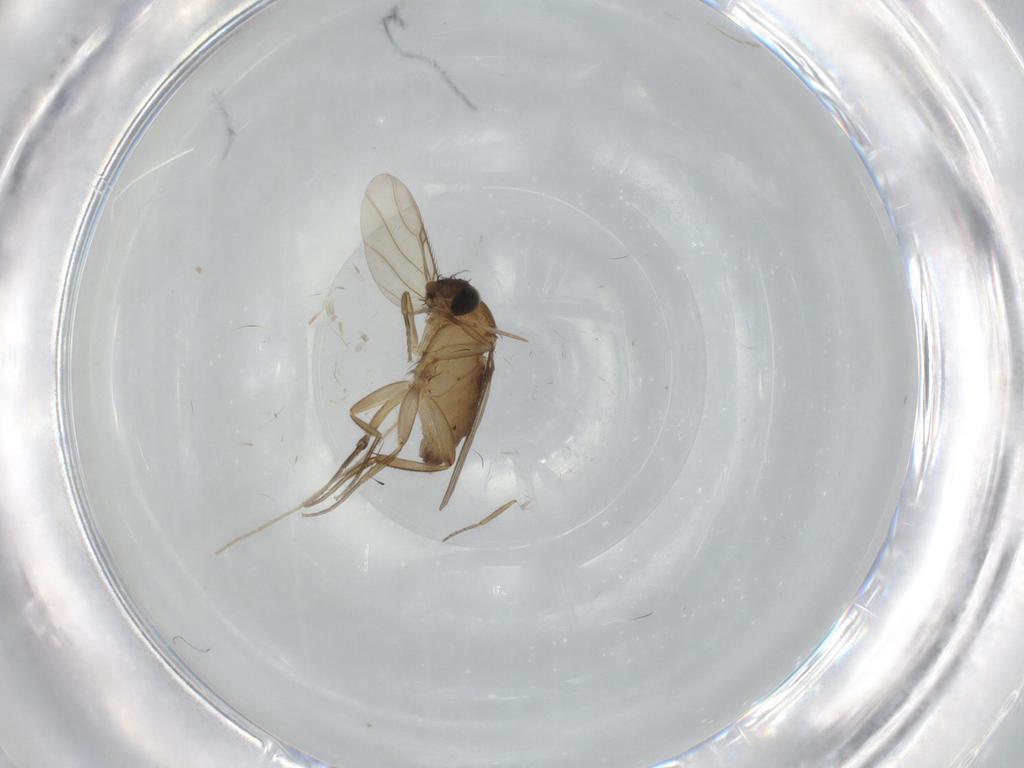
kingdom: Animalia
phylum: Arthropoda
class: Insecta
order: Diptera
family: Phoridae
